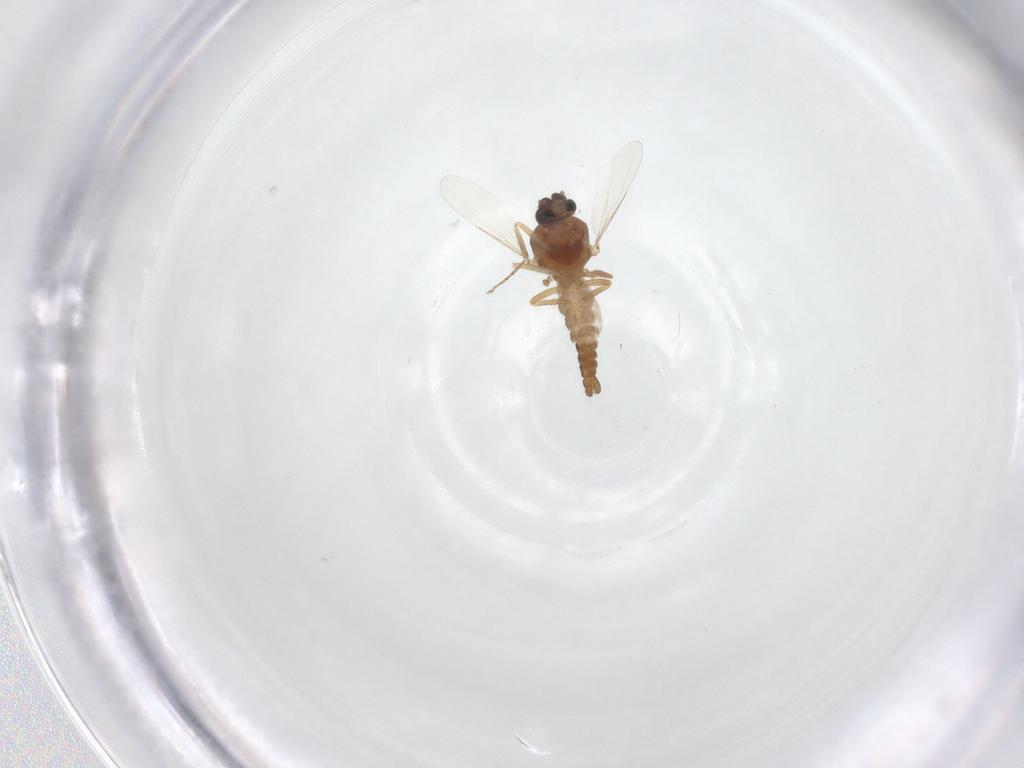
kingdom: Animalia
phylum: Arthropoda
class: Insecta
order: Diptera
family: Ceratopogonidae
